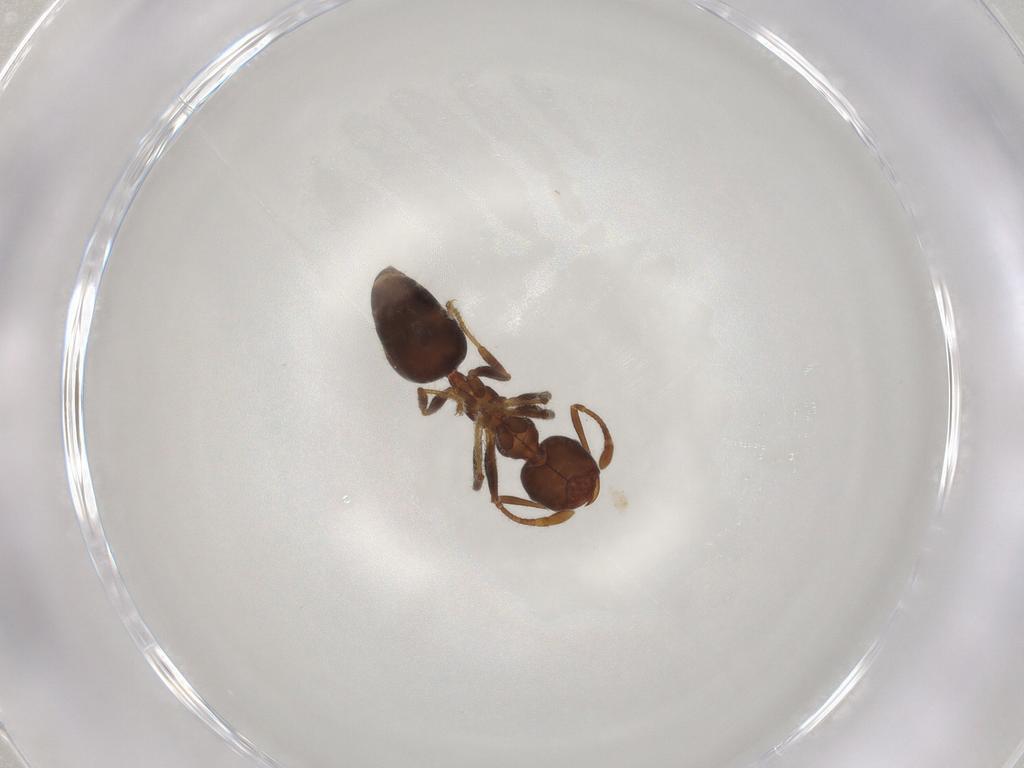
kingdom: Animalia
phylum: Arthropoda
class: Insecta
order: Hymenoptera
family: Formicidae
